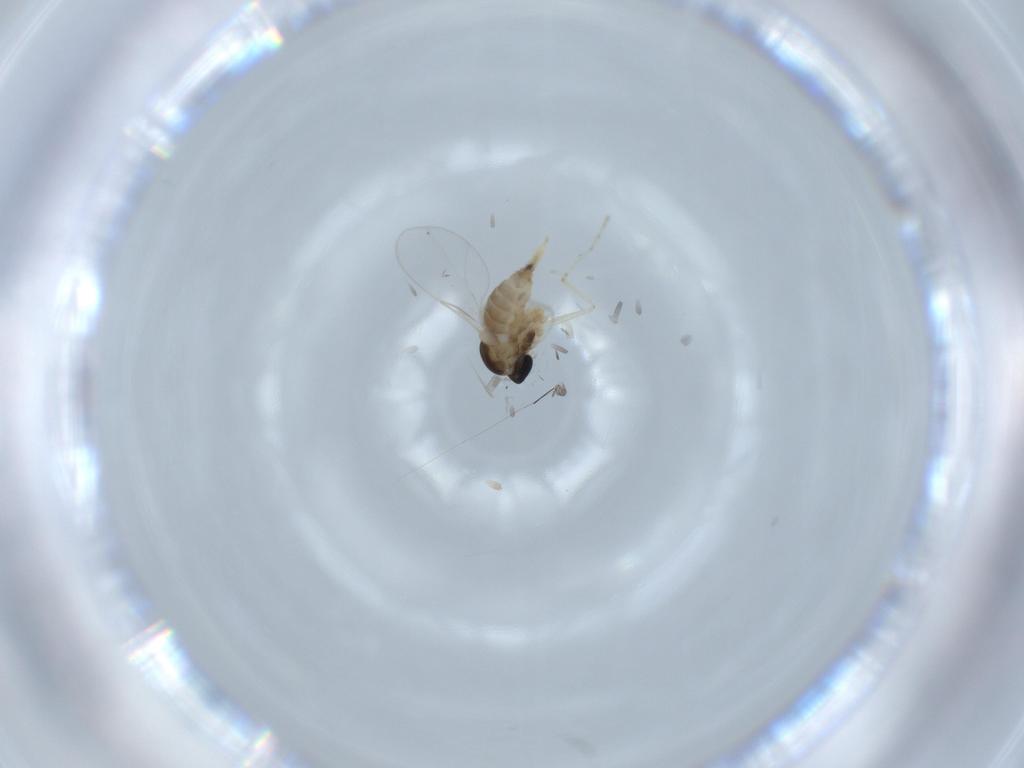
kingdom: Animalia
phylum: Arthropoda
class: Insecta
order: Diptera
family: Cecidomyiidae
